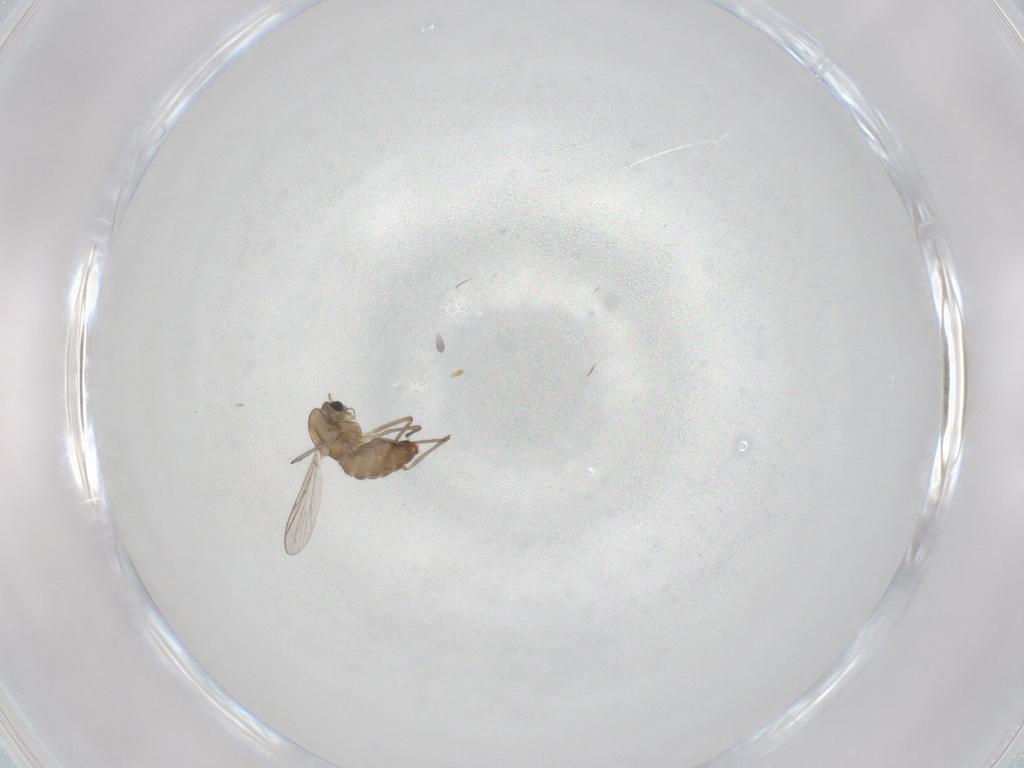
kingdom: Animalia
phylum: Arthropoda
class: Insecta
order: Diptera
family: Chironomidae
